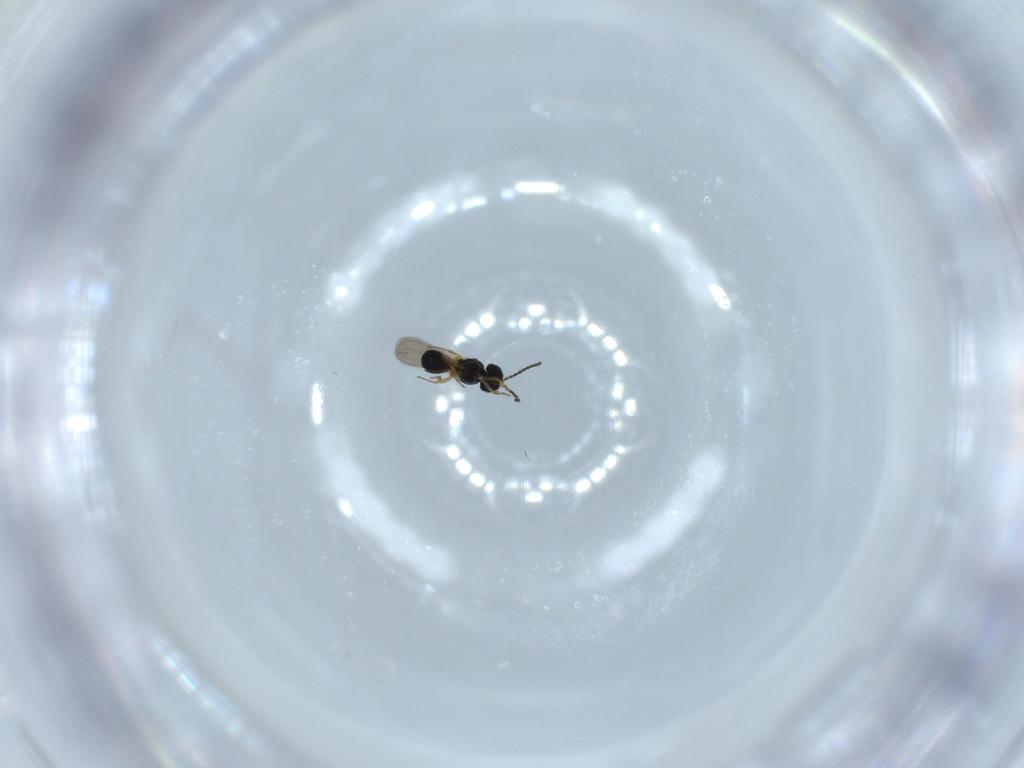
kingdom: Animalia
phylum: Arthropoda
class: Insecta
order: Hymenoptera
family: Scelionidae
